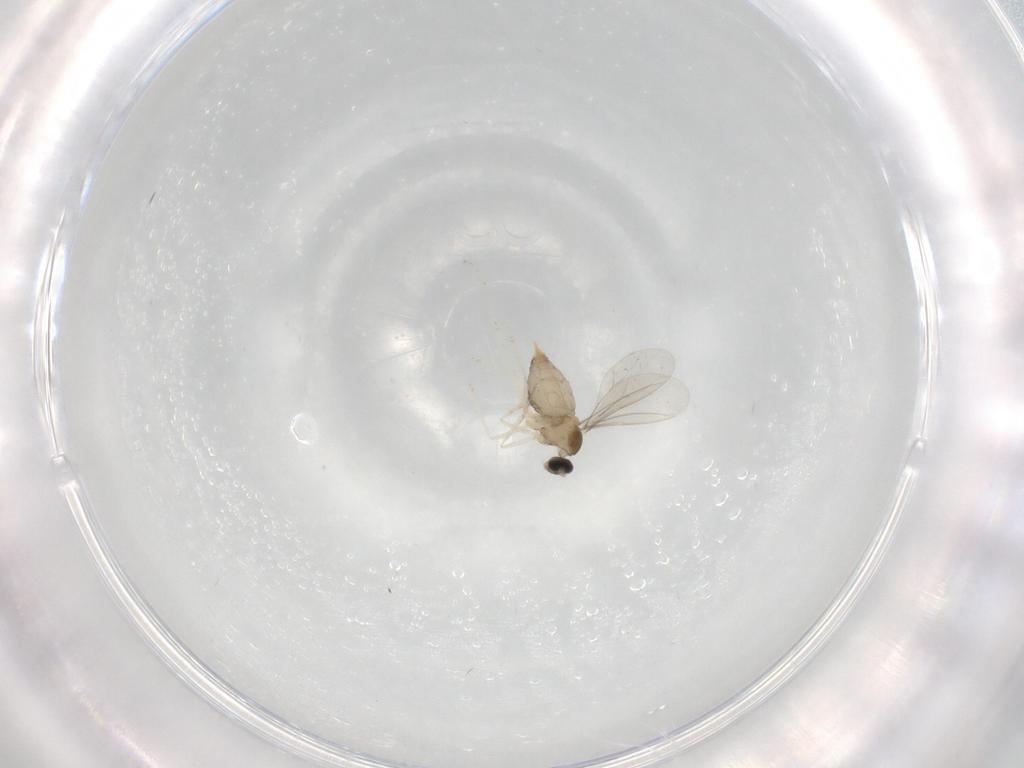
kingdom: Animalia
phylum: Arthropoda
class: Insecta
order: Diptera
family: Cecidomyiidae
